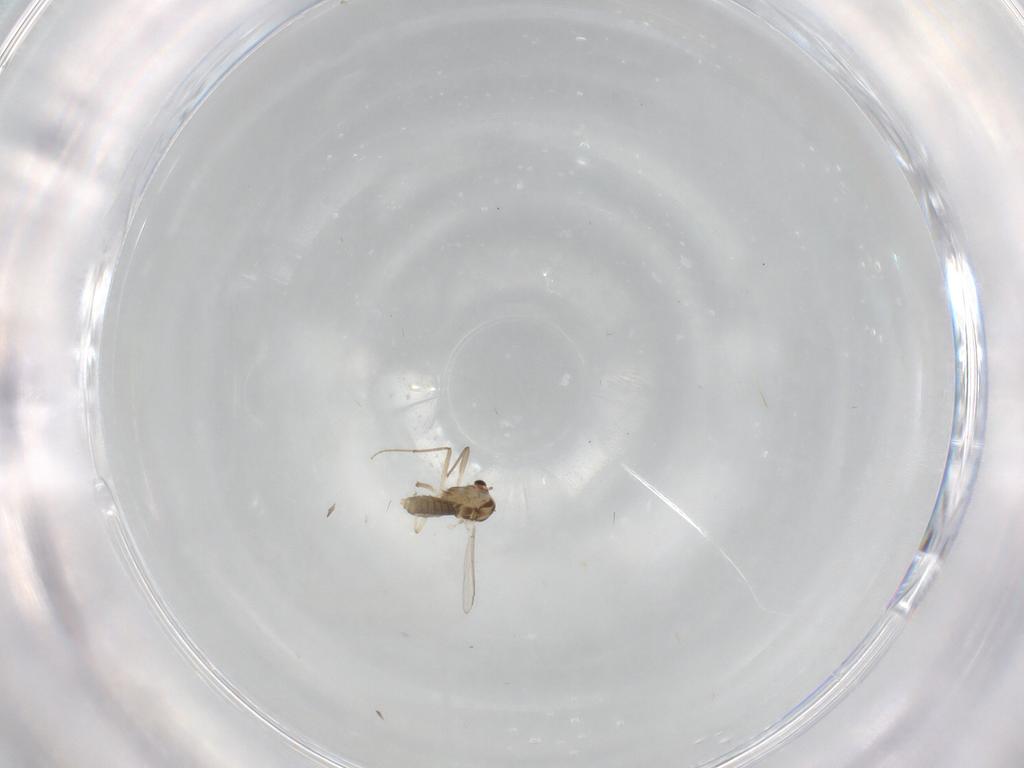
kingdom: Animalia
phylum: Arthropoda
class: Insecta
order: Diptera
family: Chironomidae
